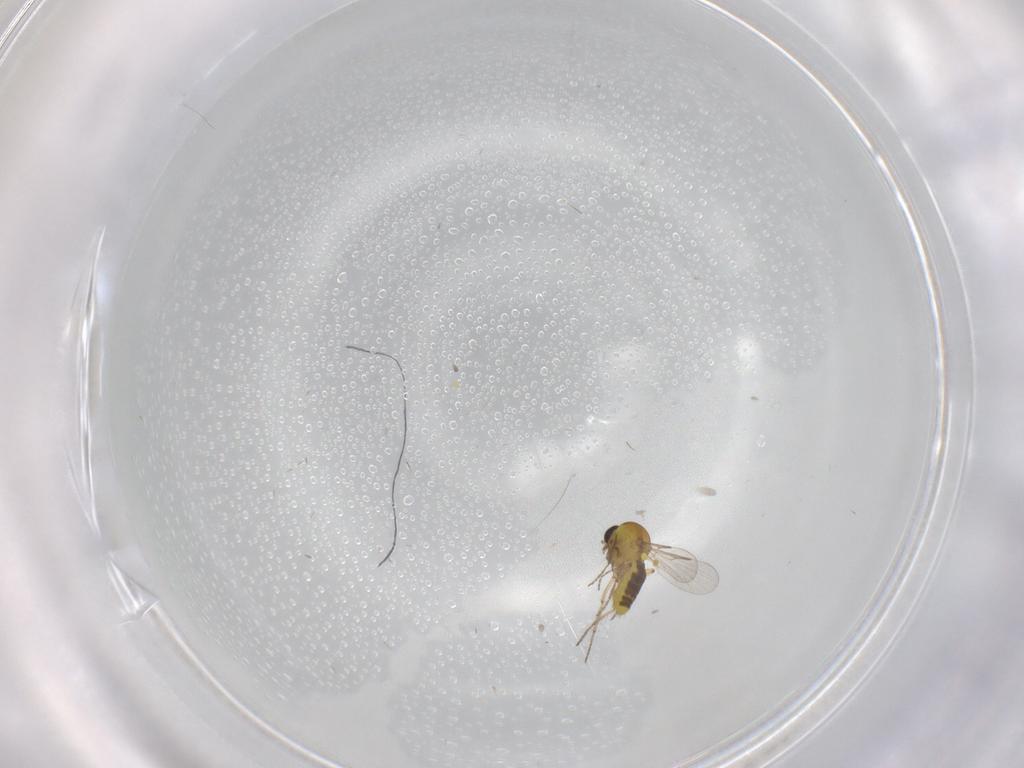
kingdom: Animalia
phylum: Arthropoda
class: Insecta
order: Diptera
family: Ceratopogonidae
